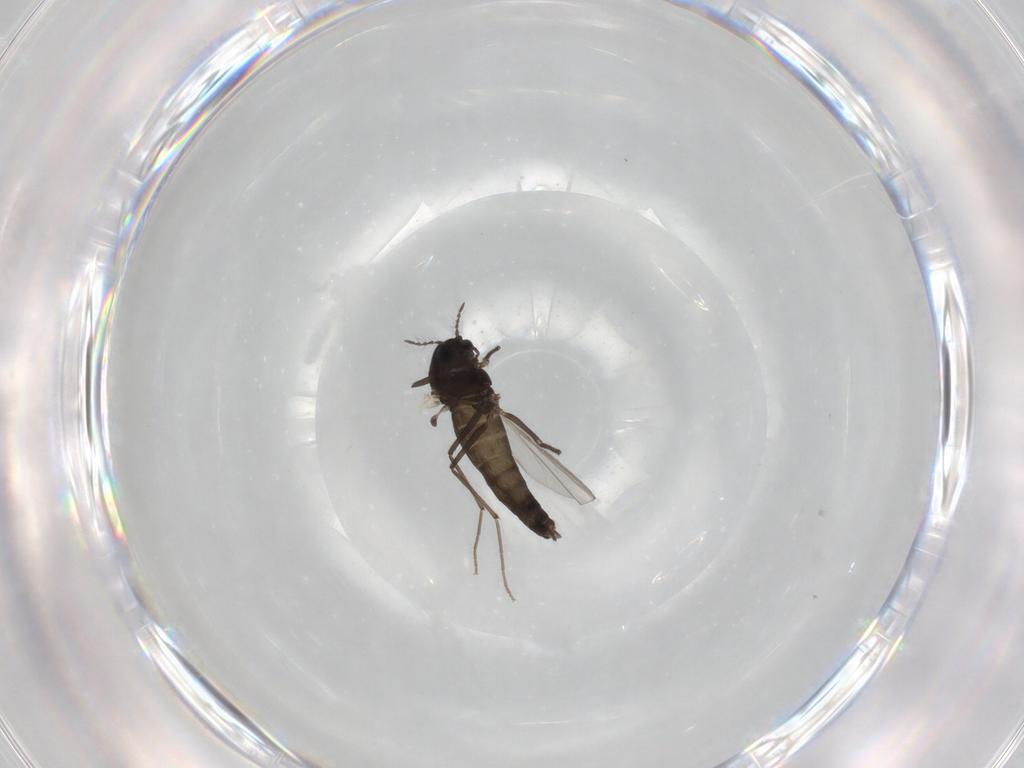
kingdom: Animalia
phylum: Arthropoda
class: Insecta
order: Diptera
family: Chironomidae
